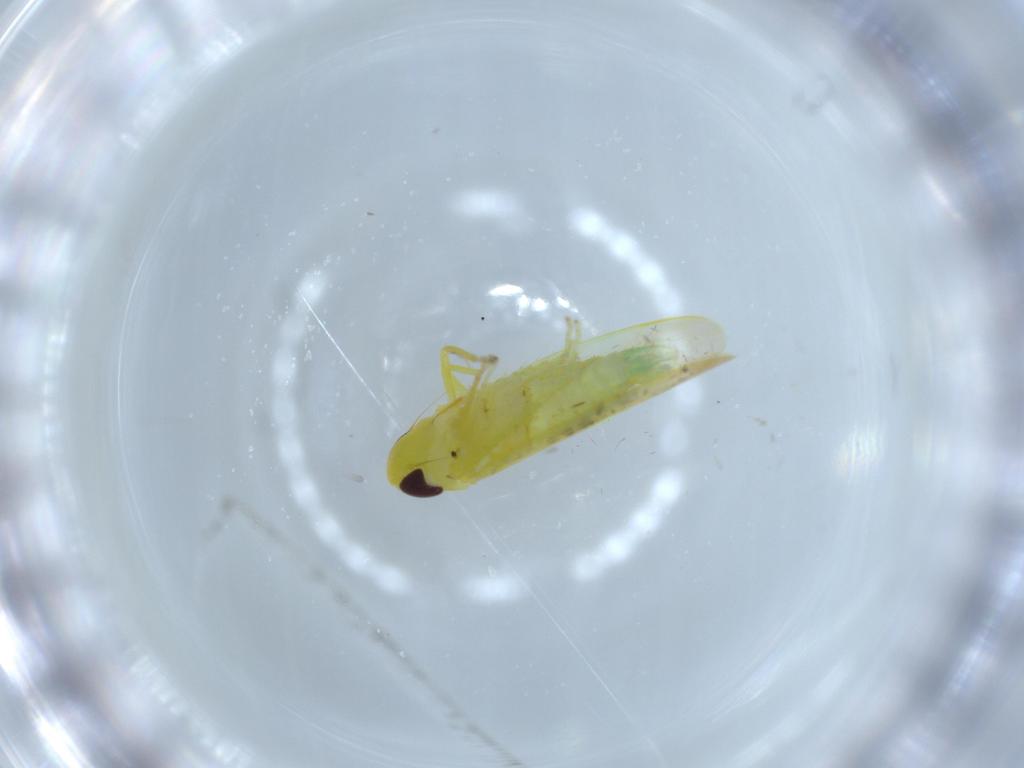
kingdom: Animalia
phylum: Arthropoda
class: Insecta
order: Hemiptera
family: Cicadellidae
